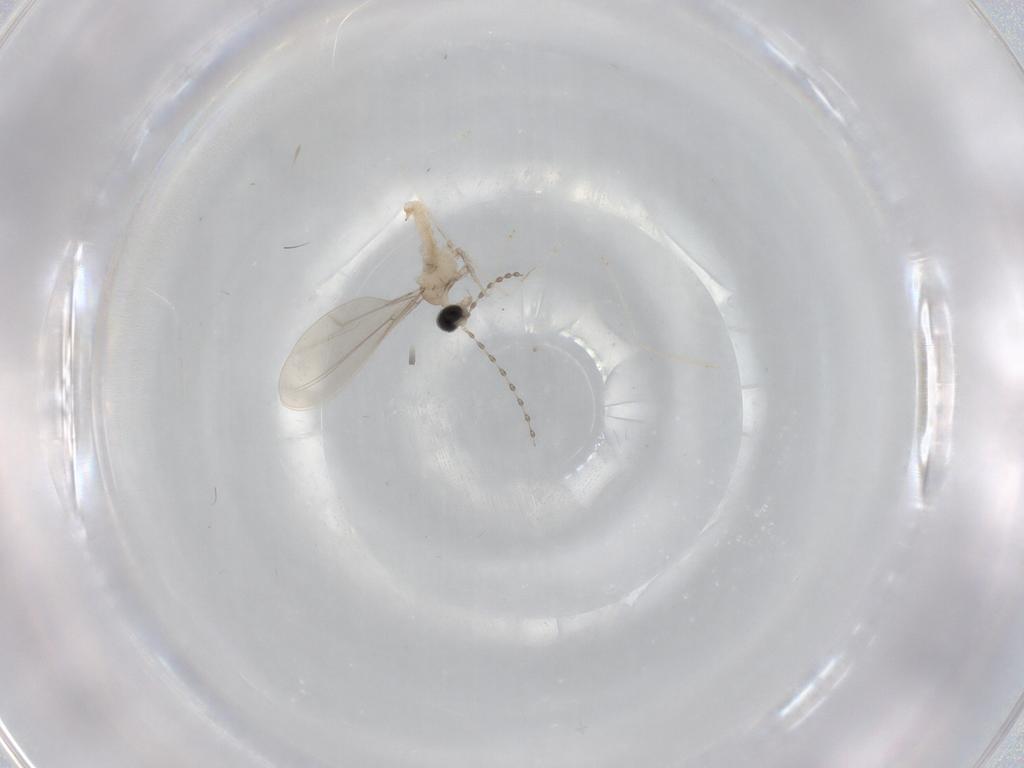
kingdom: Animalia
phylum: Arthropoda
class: Insecta
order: Diptera
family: Cecidomyiidae
